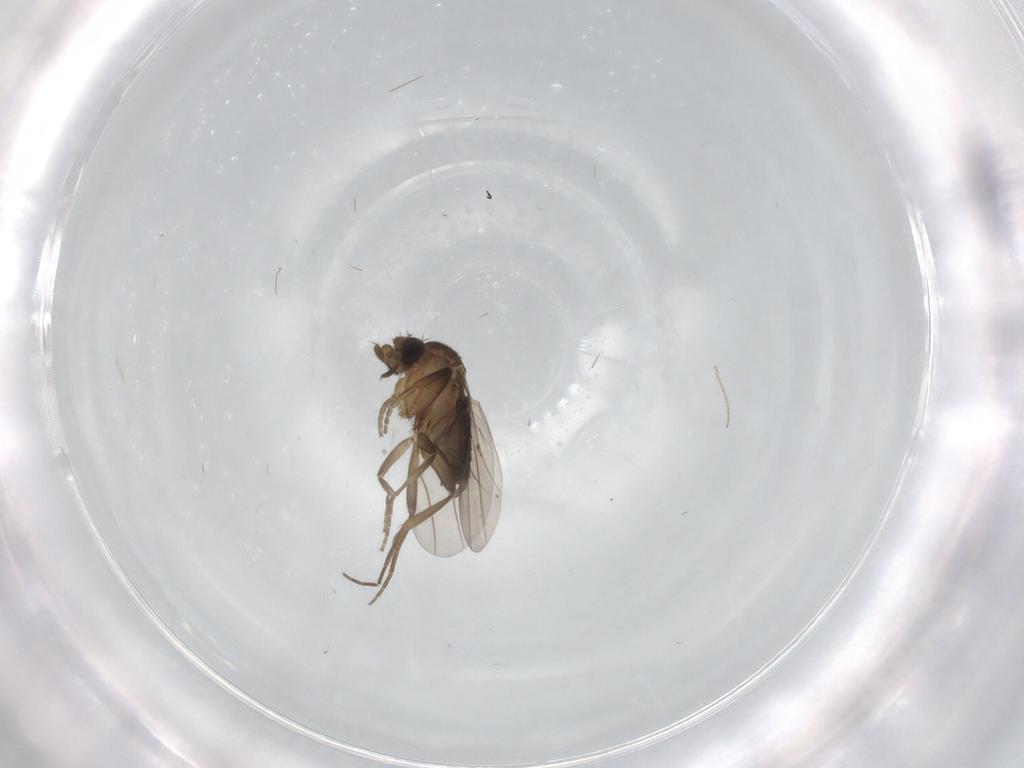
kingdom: Animalia
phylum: Arthropoda
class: Insecta
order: Diptera
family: Phoridae
